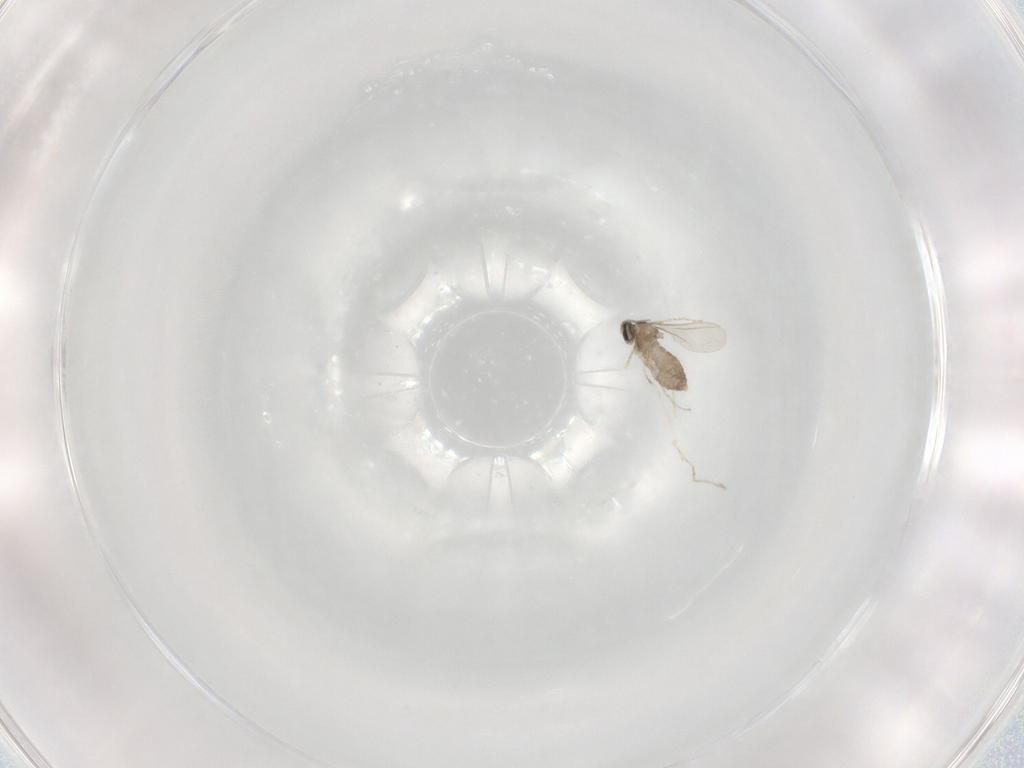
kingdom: Animalia
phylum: Arthropoda
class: Insecta
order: Diptera
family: Cecidomyiidae
